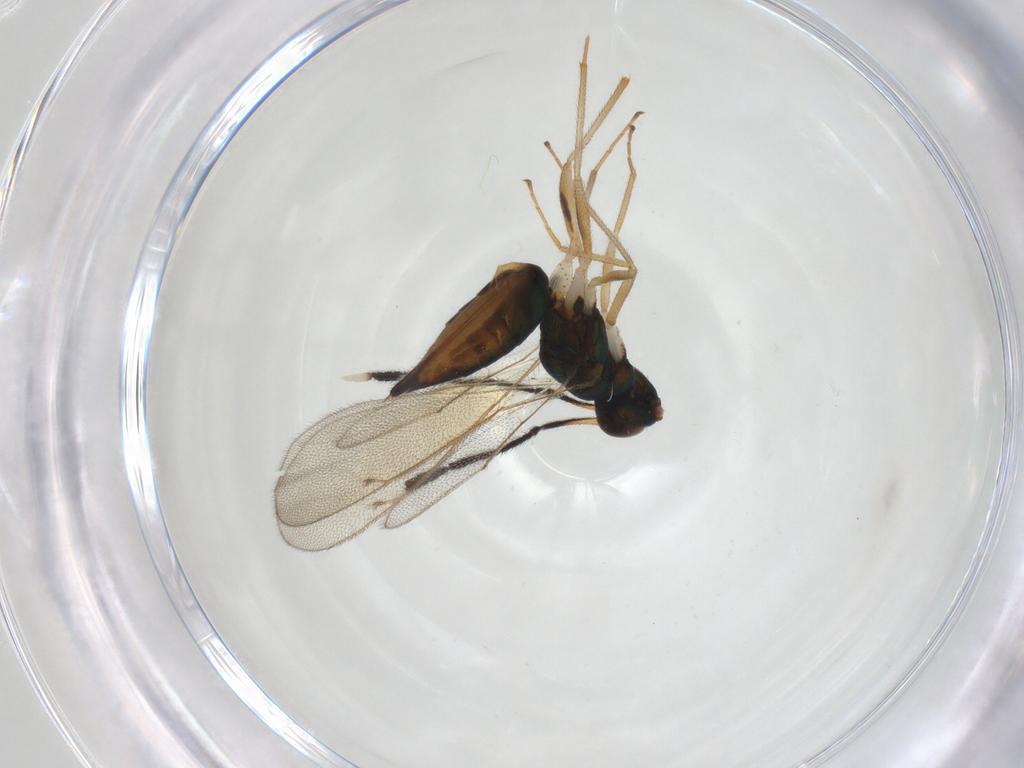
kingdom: Animalia
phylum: Arthropoda
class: Insecta
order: Hymenoptera
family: Eulophidae
